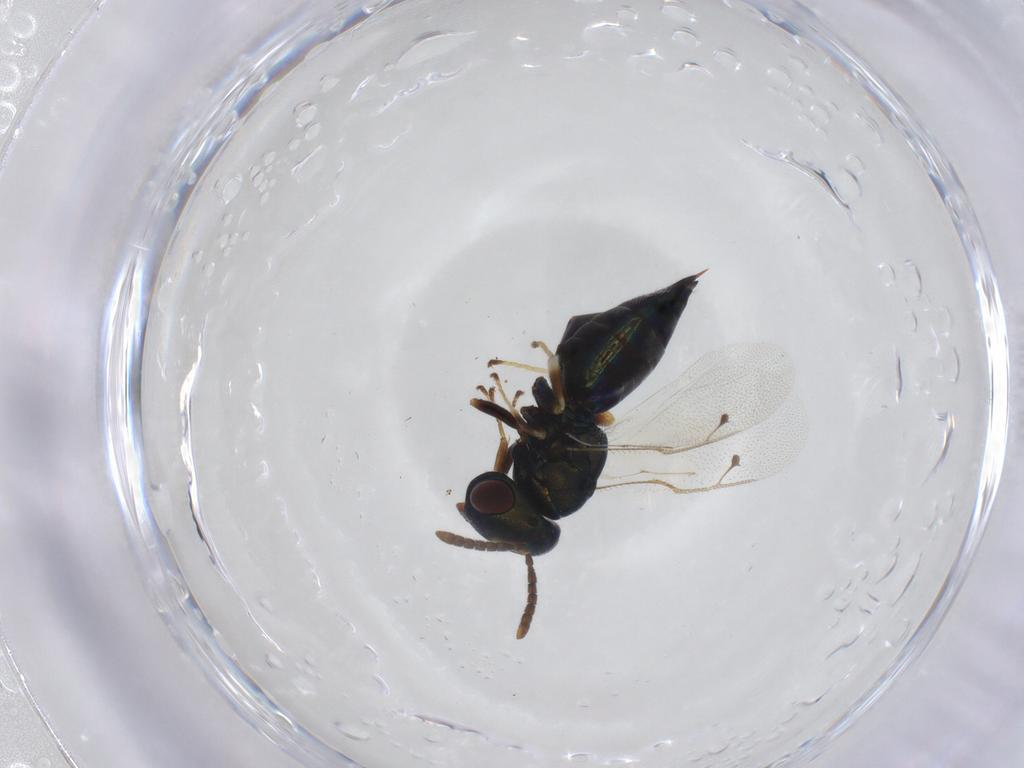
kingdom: Animalia
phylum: Arthropoda
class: Insecta
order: Hymenoptera
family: Pteromalidae
